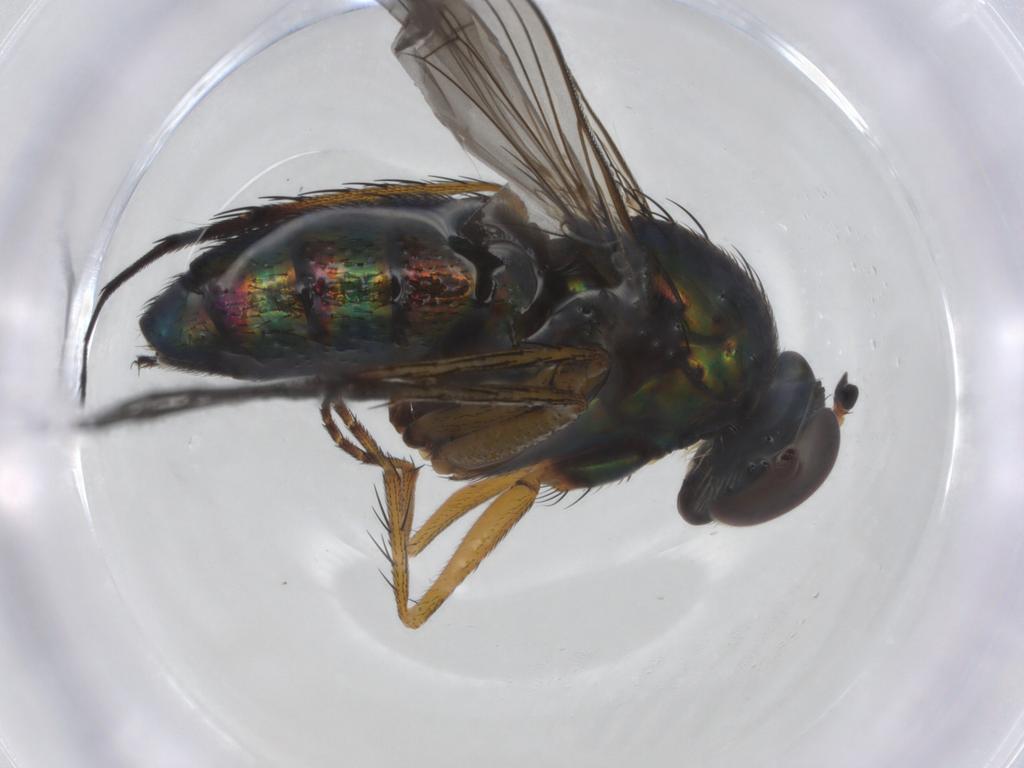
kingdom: Animalia
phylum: Arthropoda
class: Insecta
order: Diptera
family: Dolichopodidae
